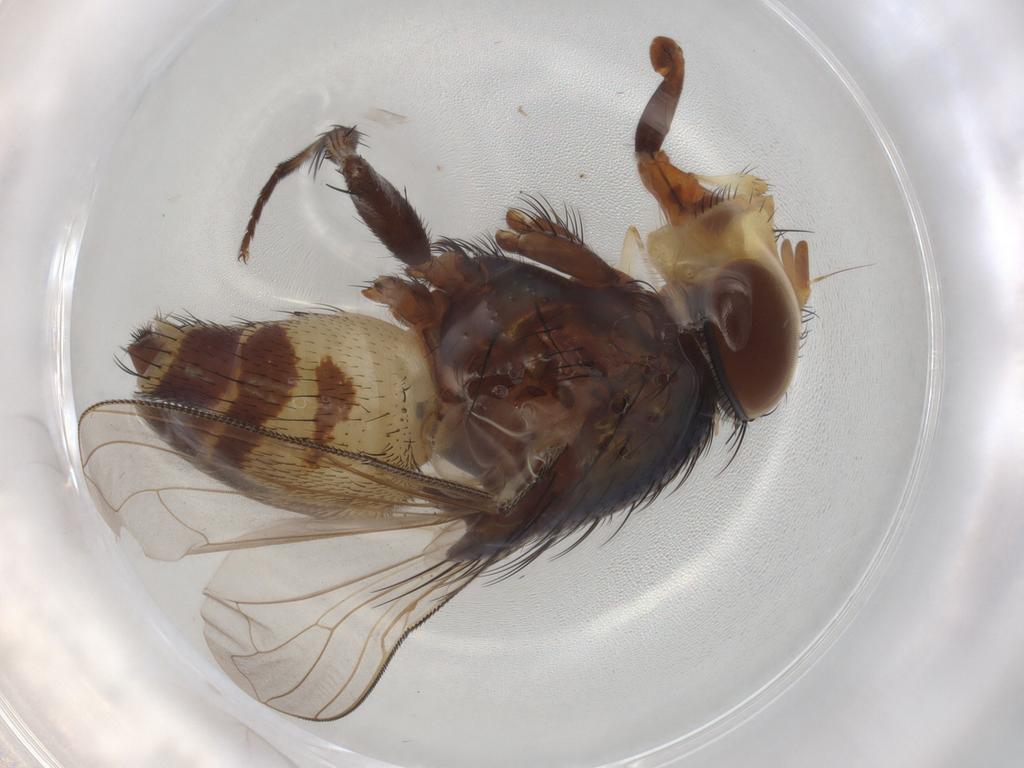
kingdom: Animalia
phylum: Arthropoda
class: Insecta
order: Diptera
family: Calliphoridae
